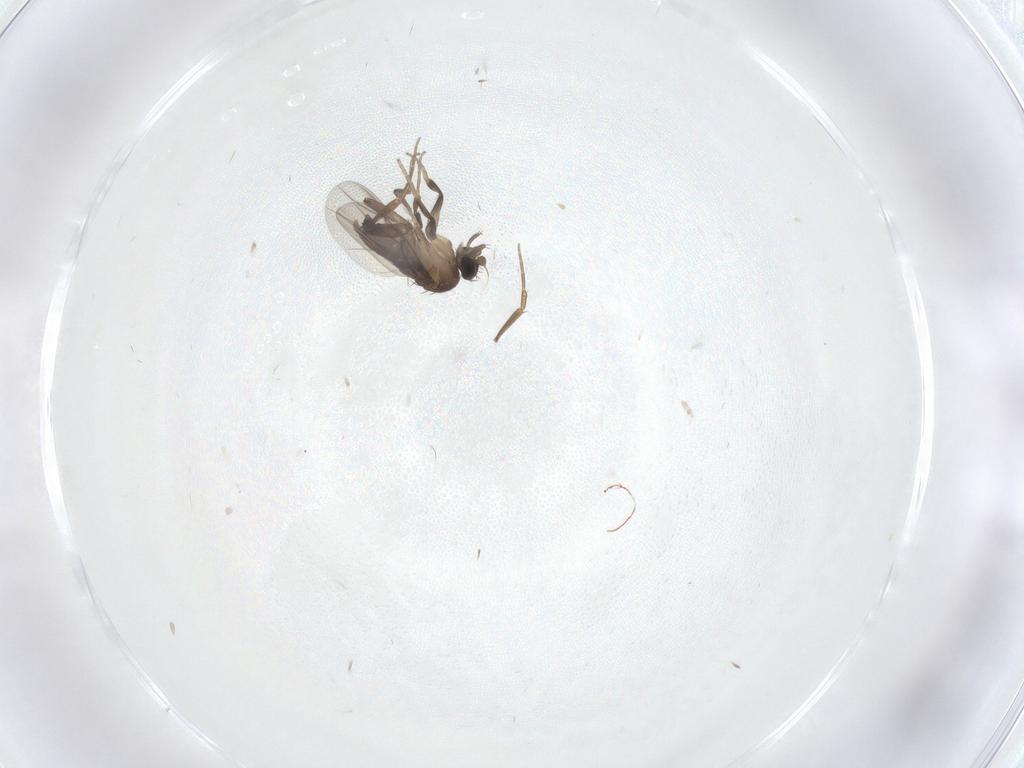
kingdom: Animalia
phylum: Arthropoda
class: Insecta
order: Diptera
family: Phoridae
